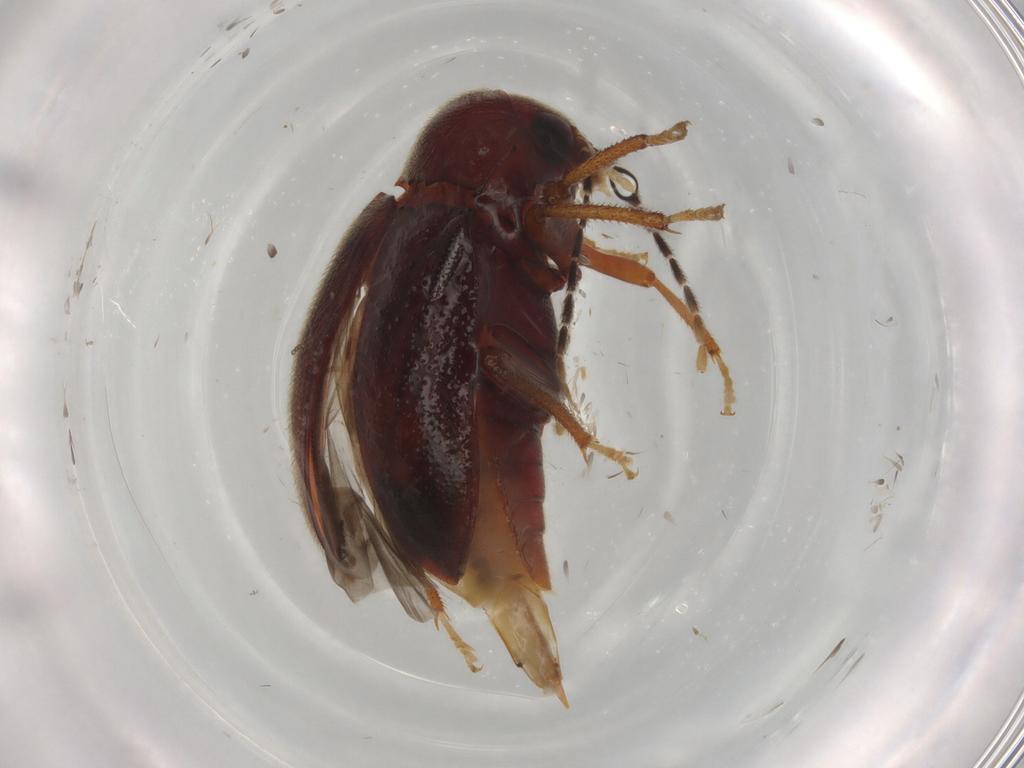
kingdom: Animalia
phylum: Arthropoda
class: Insecta
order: Coleoptera
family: Ptilodactylidae
